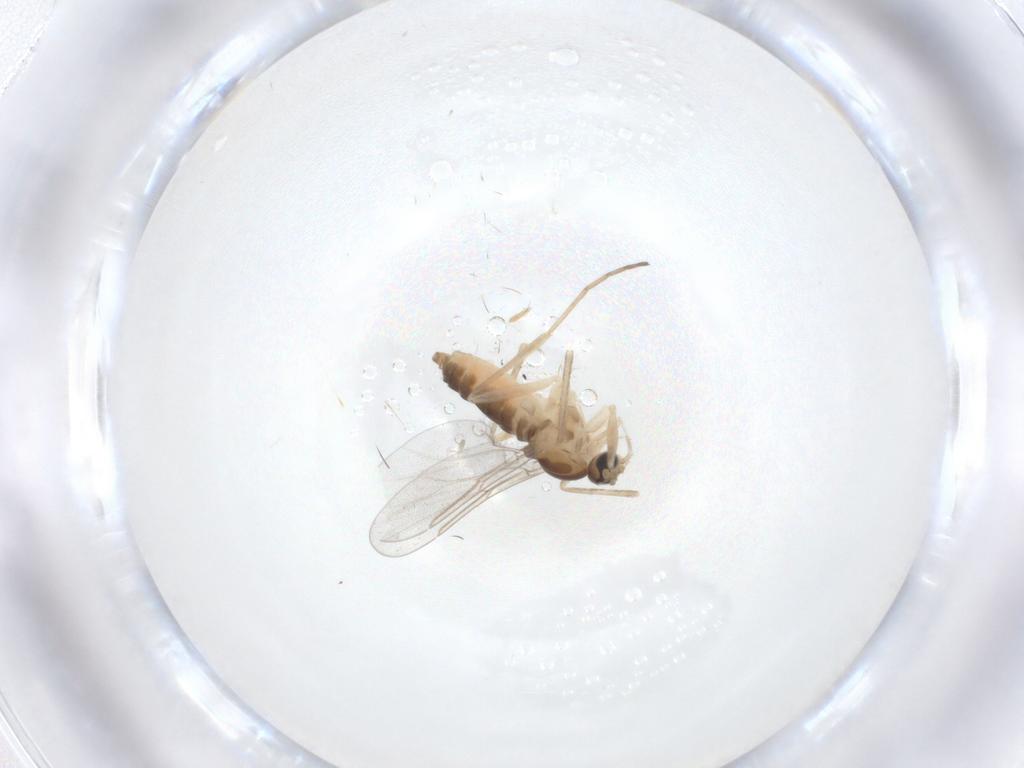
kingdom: Animalia
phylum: Arthropoda
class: Insecta
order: Diptera
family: Cecidomyiidae
